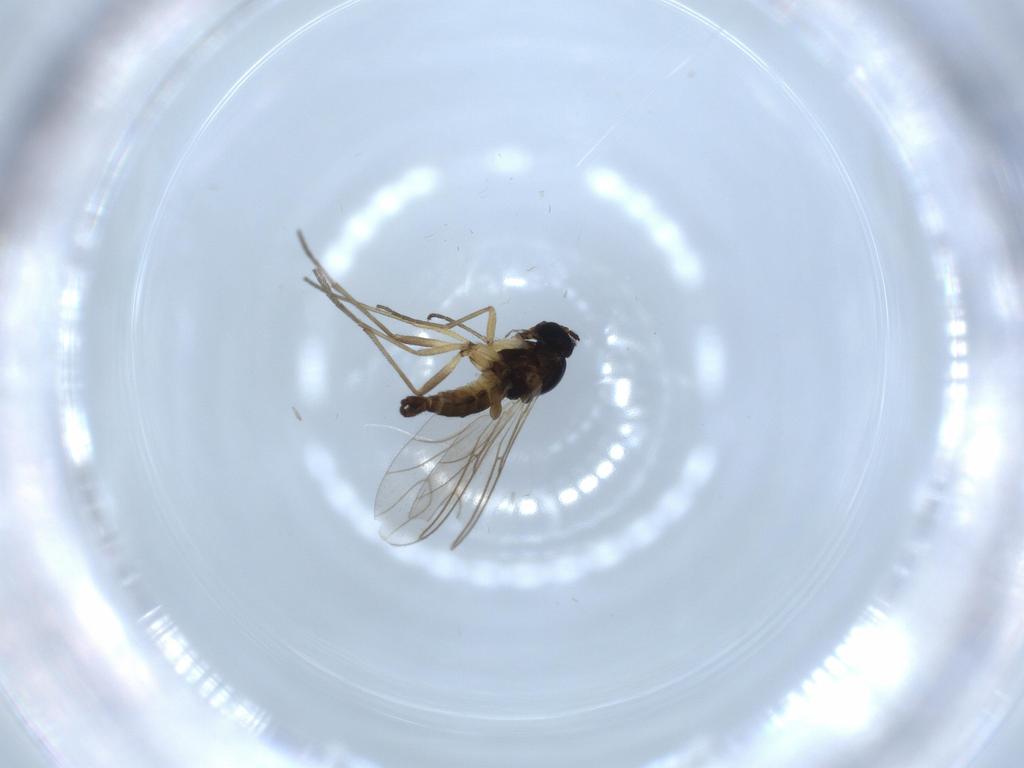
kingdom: Animalia
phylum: Arthropoda
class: Insecta
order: Diptera
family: Sciaridae
